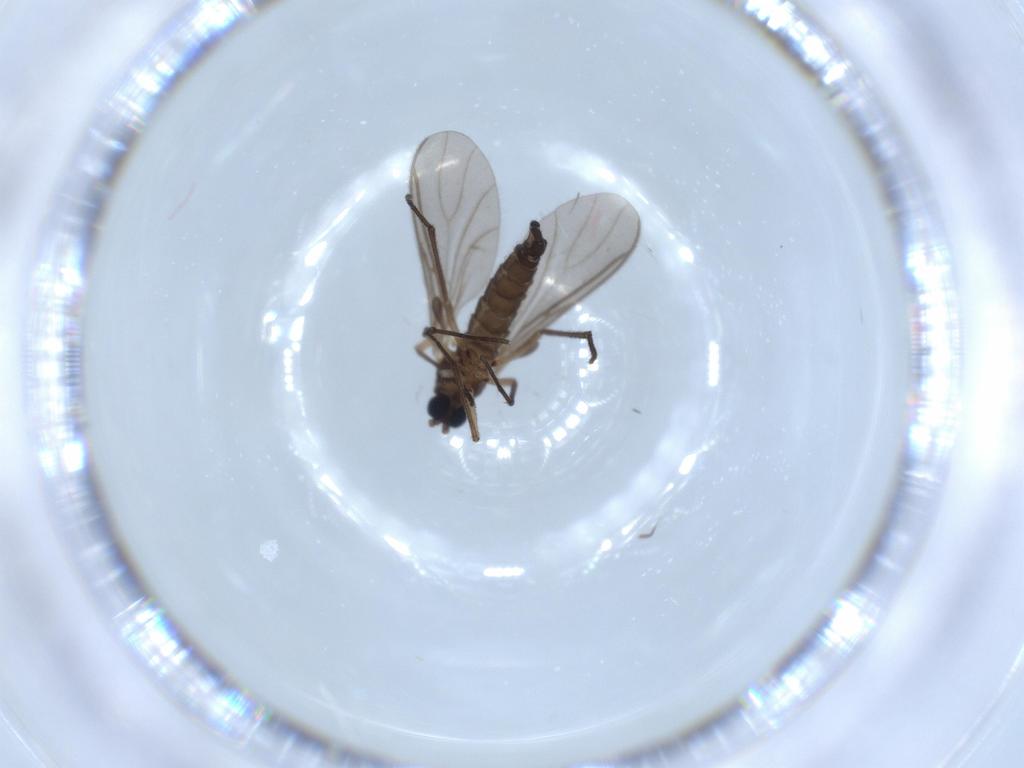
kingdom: Animalia
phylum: Arthropoda
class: Insecta
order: Diptera
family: Sciaridae
